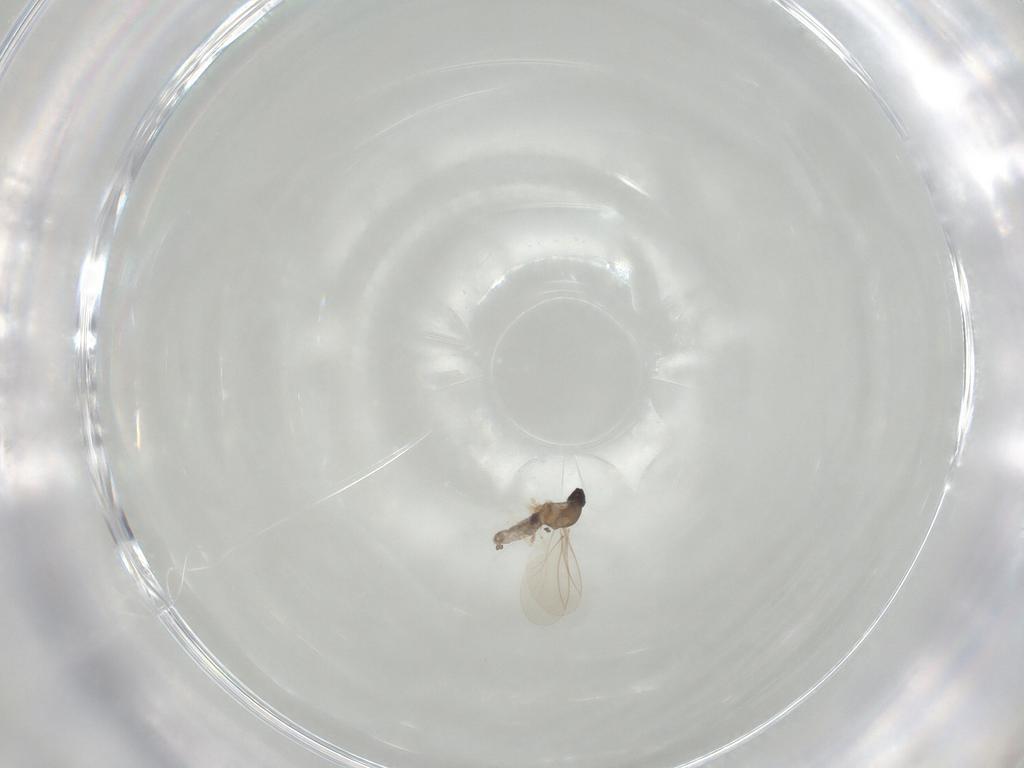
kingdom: Animalia
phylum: Arthropoda
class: Insecta
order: Diptera
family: Cecidomyiidae
